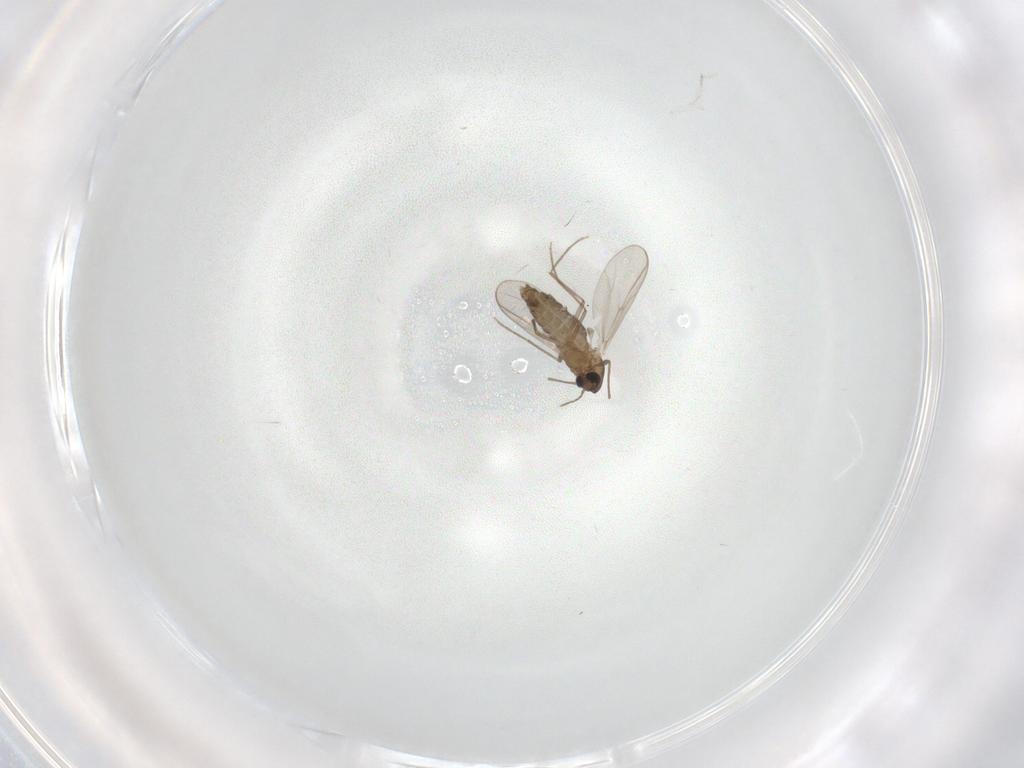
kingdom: Animalia
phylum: Arthropoda
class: Insecta
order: Diptera
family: Chironomidae
